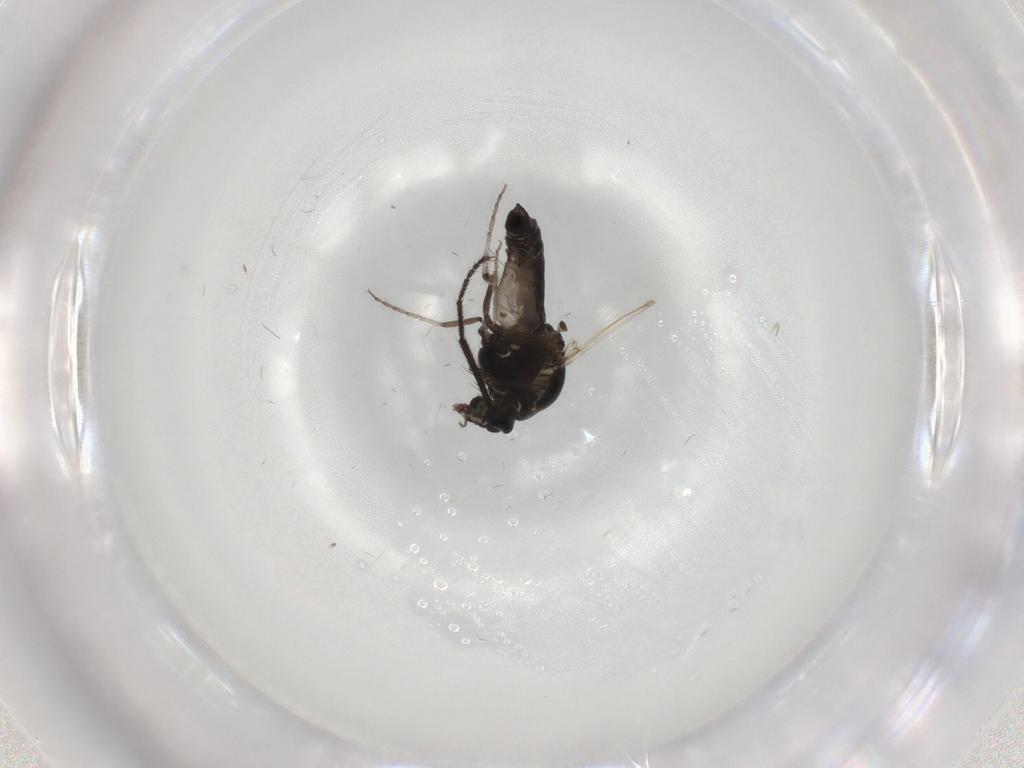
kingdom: Animalia
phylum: Arthropoda
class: Insecta
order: Diptera
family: Chironomidae
